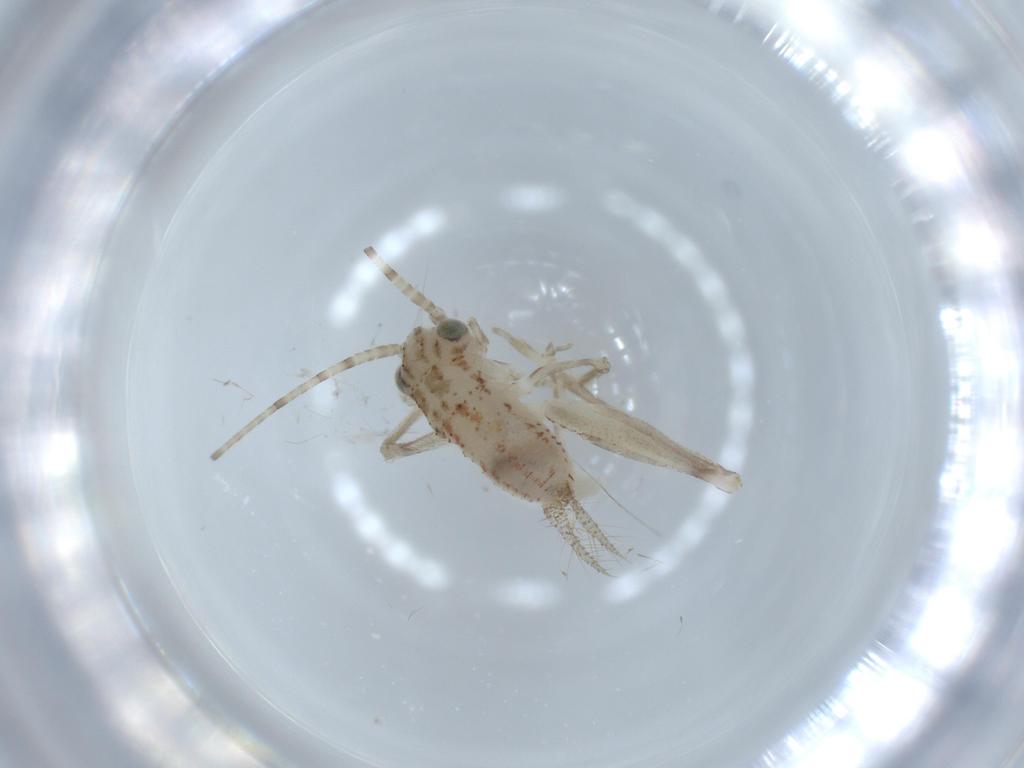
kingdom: Animalia
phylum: Arthropoda
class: Insecta
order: Orthoptera
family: Trigonidiidae
